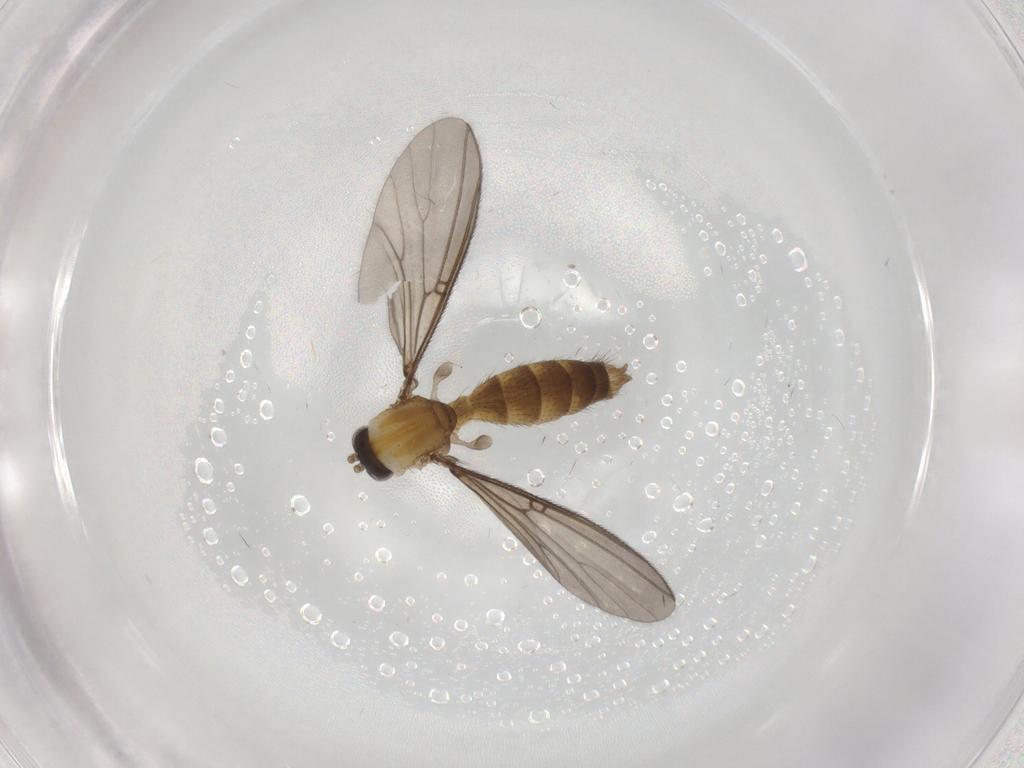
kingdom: Animalia
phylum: Arthropoda
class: Insecta
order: Diptera
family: Mycetophilidae
